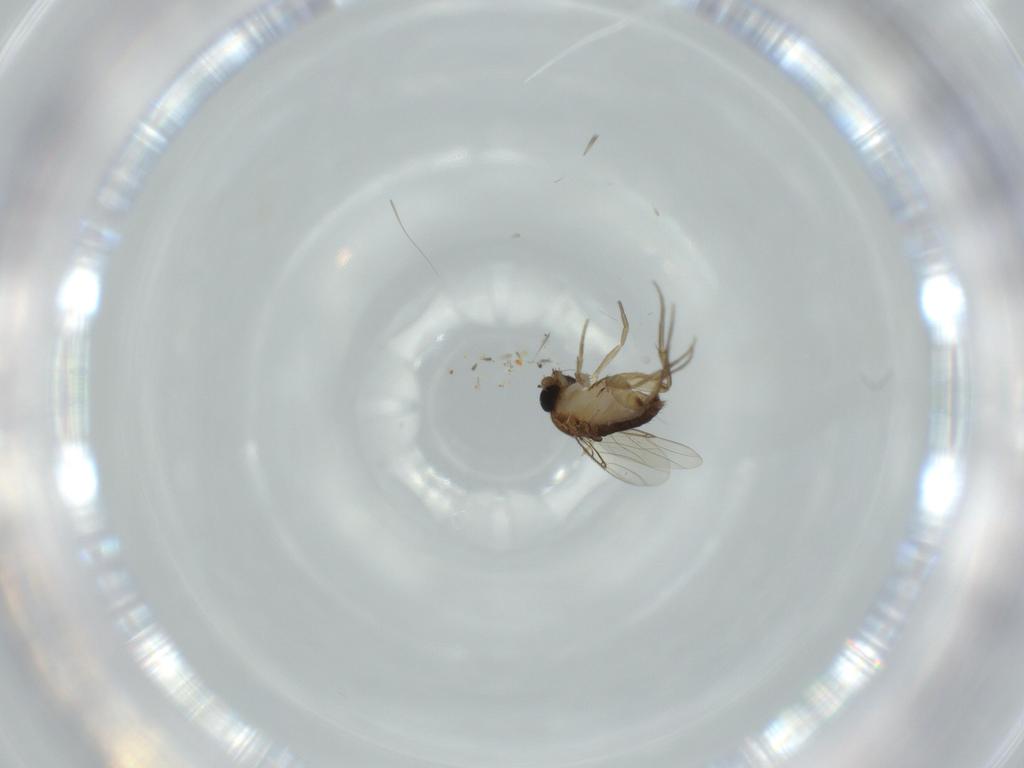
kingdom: Animalia
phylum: Arthropoda
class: Insecta
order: Diptera
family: Phoridae
